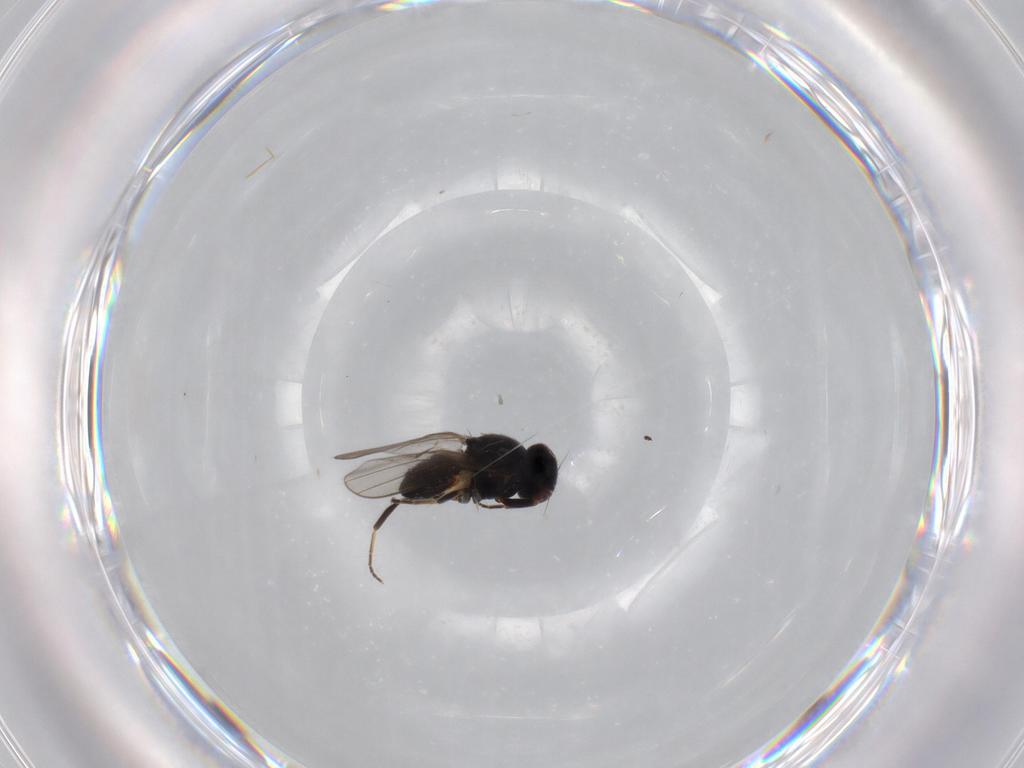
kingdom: Animalia
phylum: Arthropoda
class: Insecta
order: Diptera
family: Chloropidae
